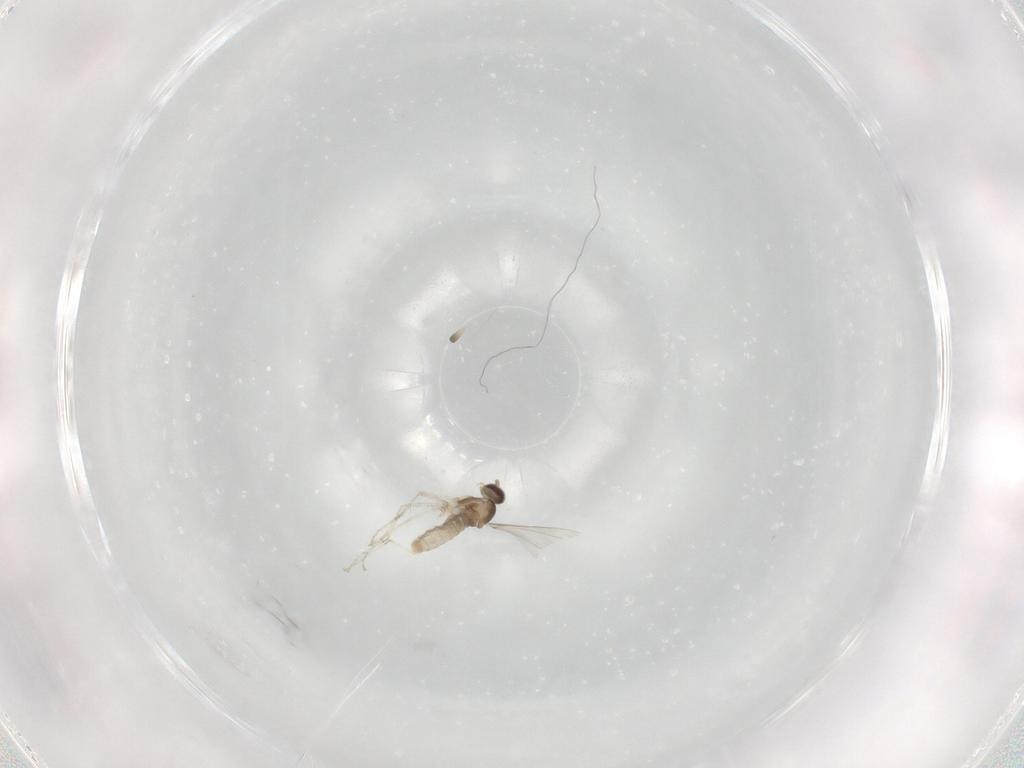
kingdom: Animalia
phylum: Arthropoda
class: Insecta
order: Diptera
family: Cecidomyiidae
